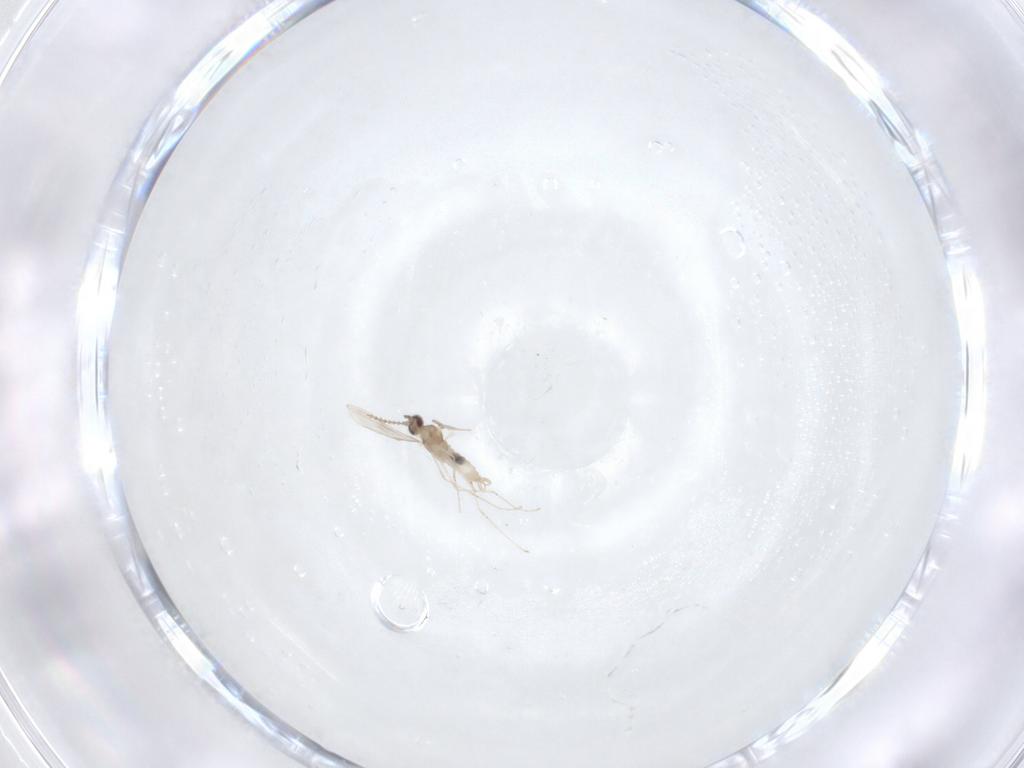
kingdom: Animalia
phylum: Arthropoda
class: Insecta
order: Diptera
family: Cecidomyiidae
